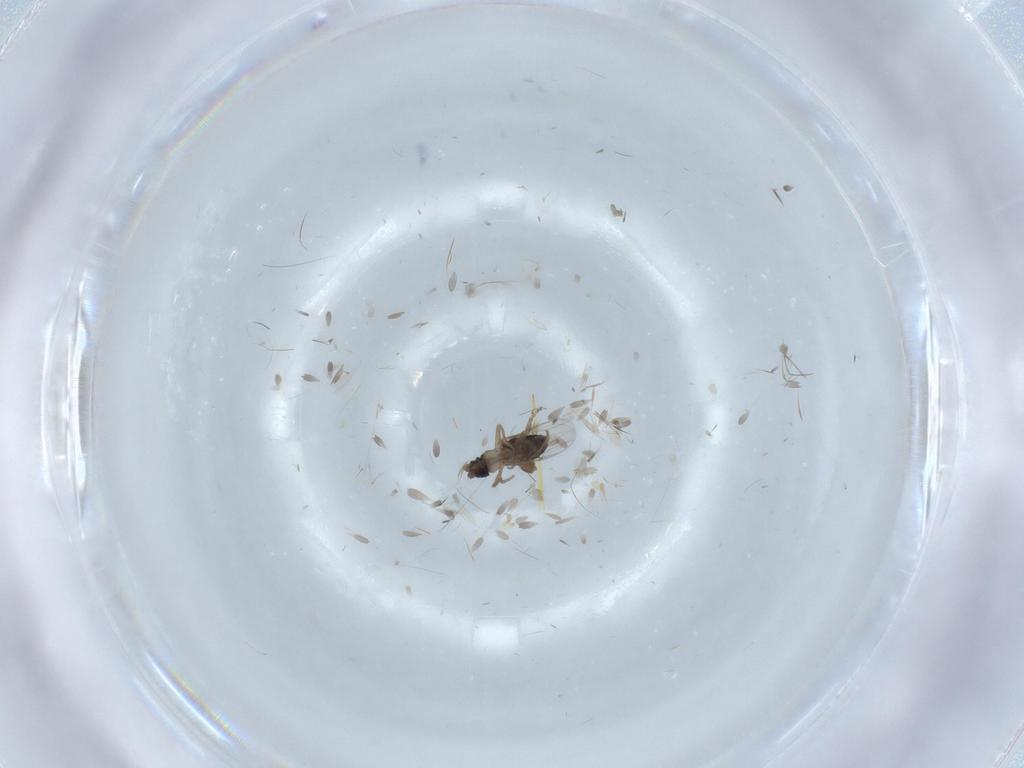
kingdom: Animalia
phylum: Arthropoda
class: Insecta
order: Diptera
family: Phoridae
